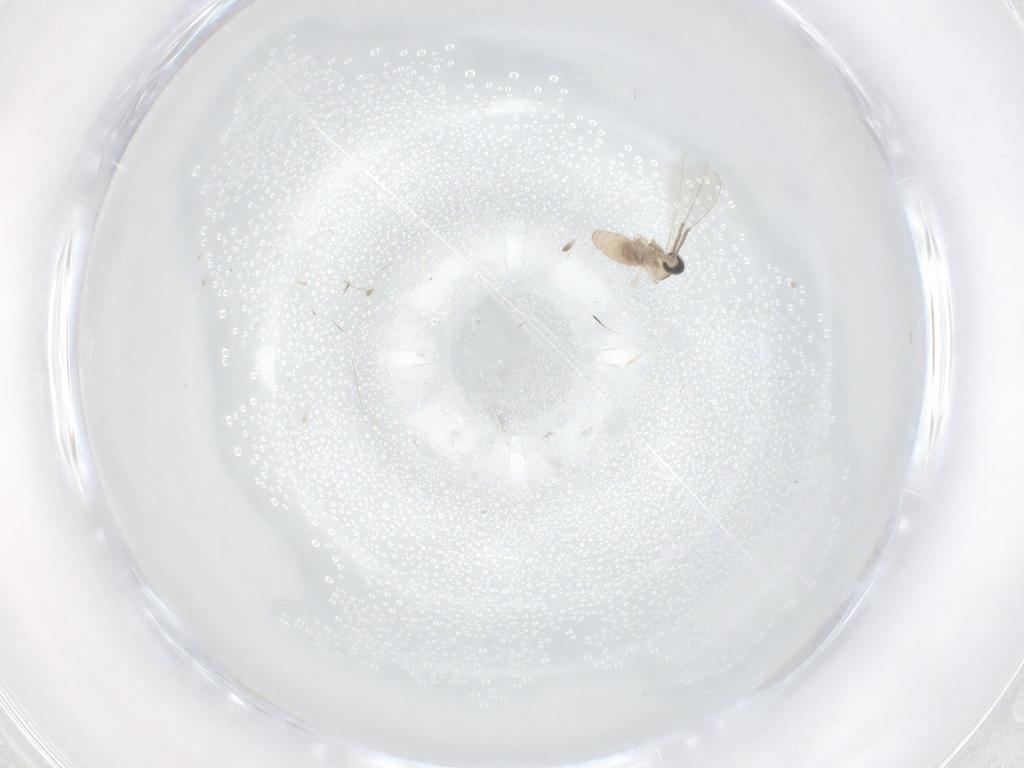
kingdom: Animalia
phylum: Arthropoda
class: Insecta
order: Diptera
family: Cecidomyiidae
